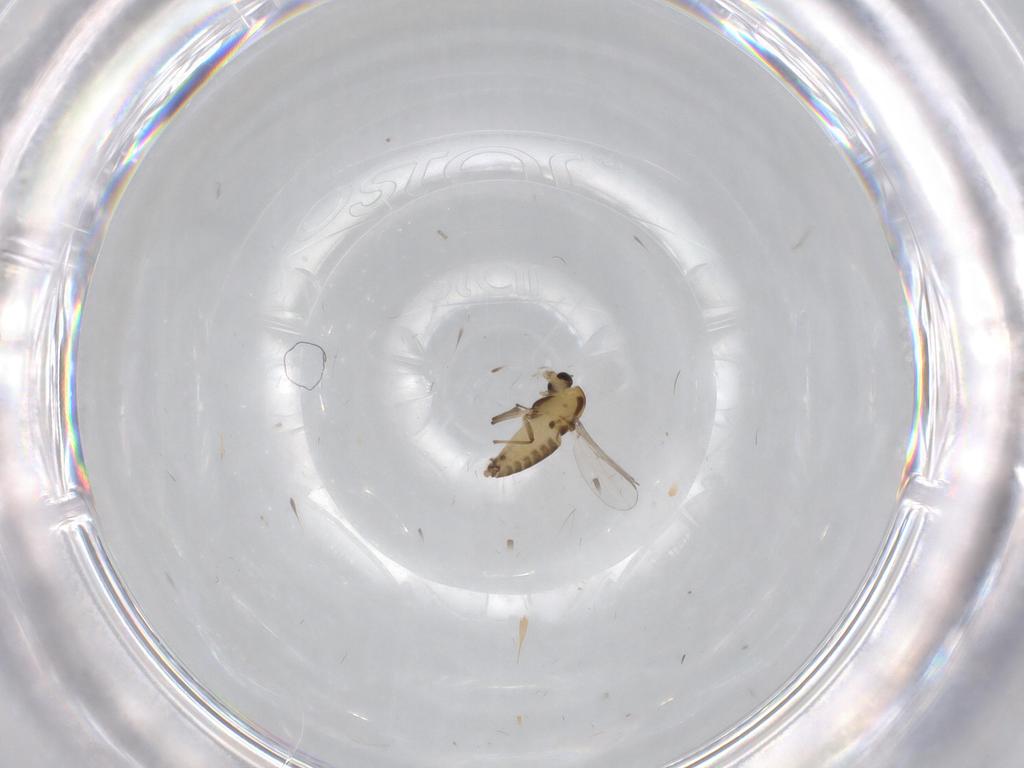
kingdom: Animalia
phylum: Arthropoda
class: Insecta
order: Diptera
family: Chironomidae
